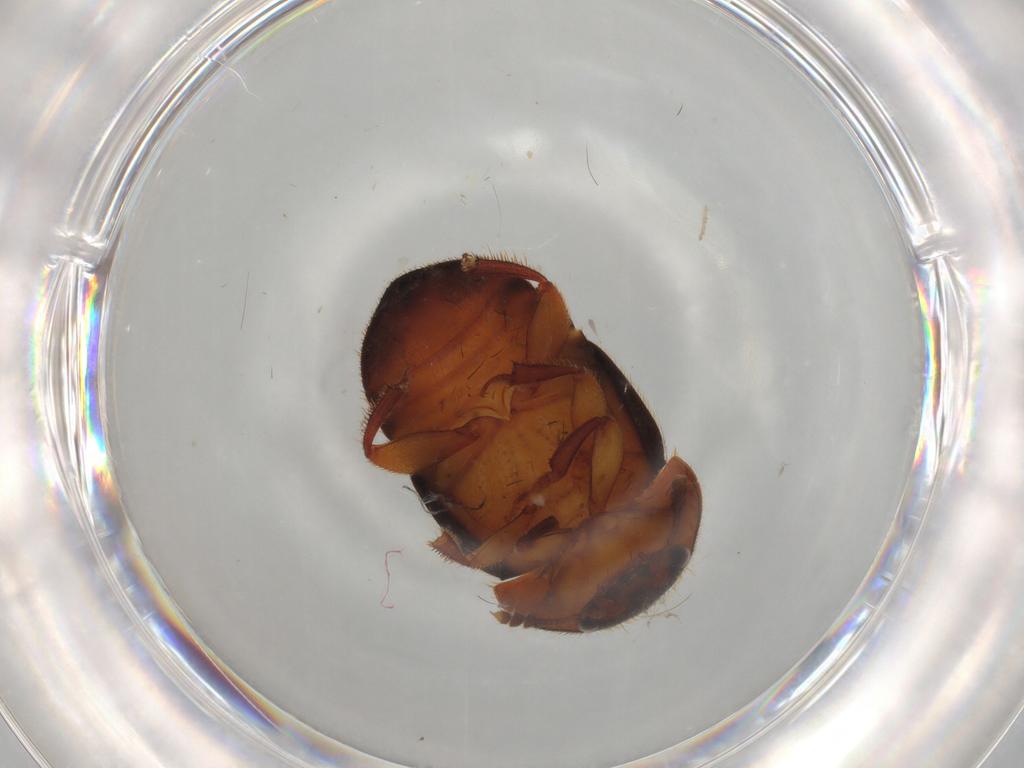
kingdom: Animalia
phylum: Arthropoda
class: Insecta
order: Coleoptera
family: Nitidulidae
